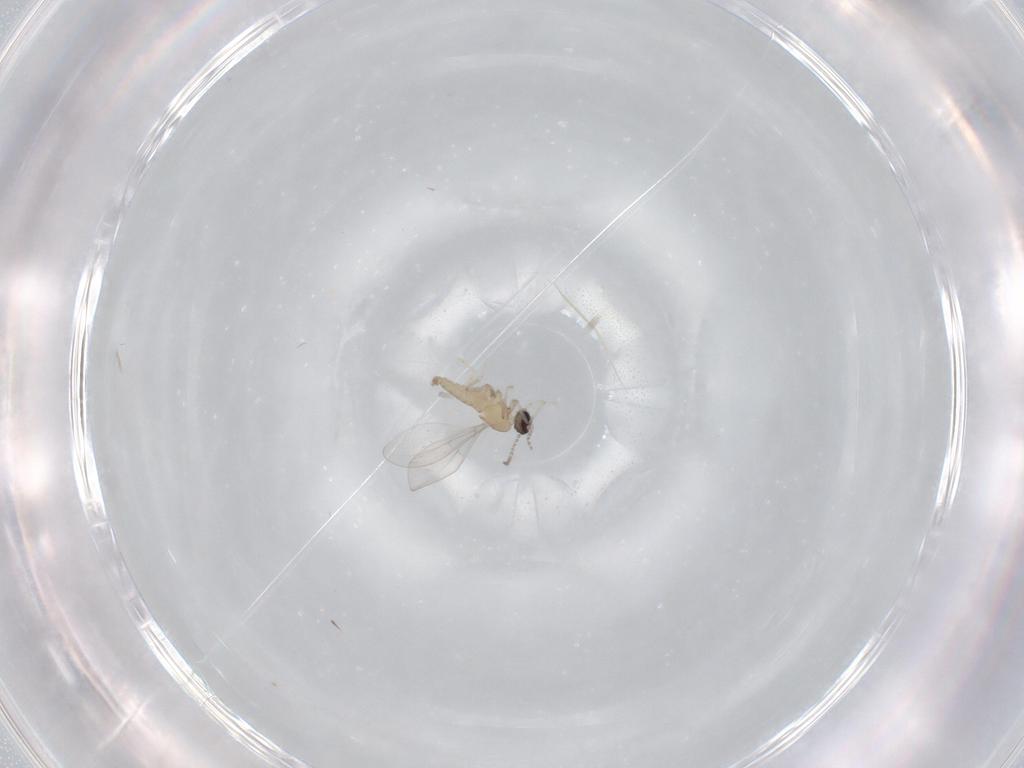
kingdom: Animalia
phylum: Arthropoda
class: Insecta
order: Diptera
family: Cecidomyiidae
